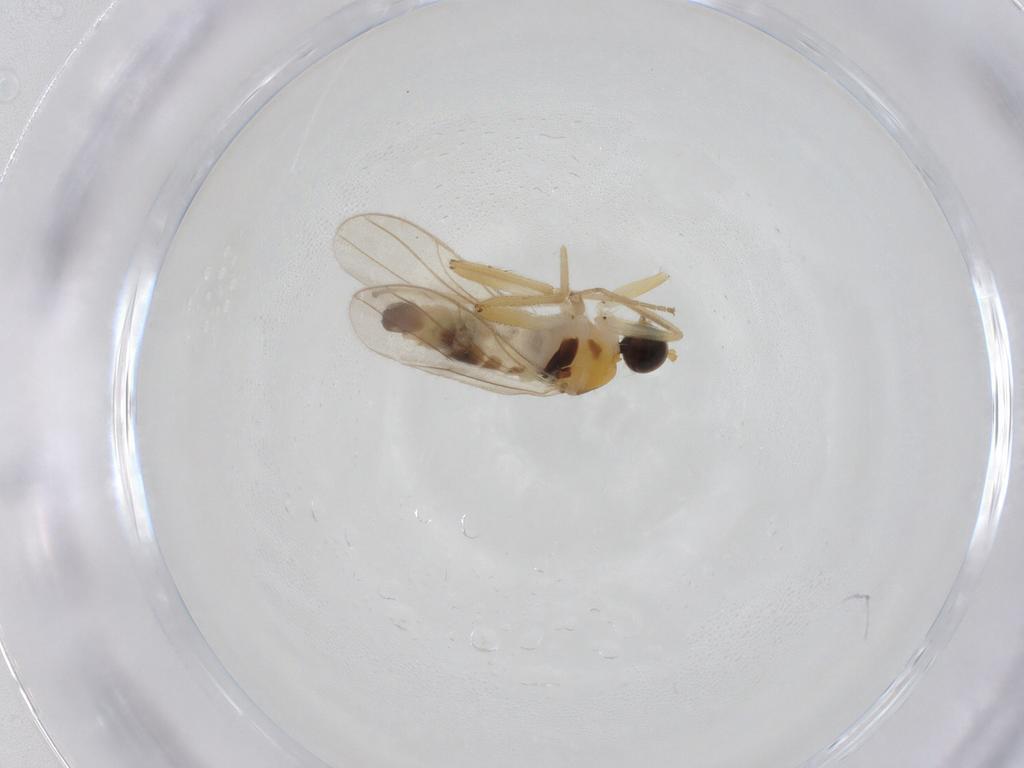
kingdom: Animalia
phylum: Arthropoda
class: Insecta
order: Diptera
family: Hybotidae
